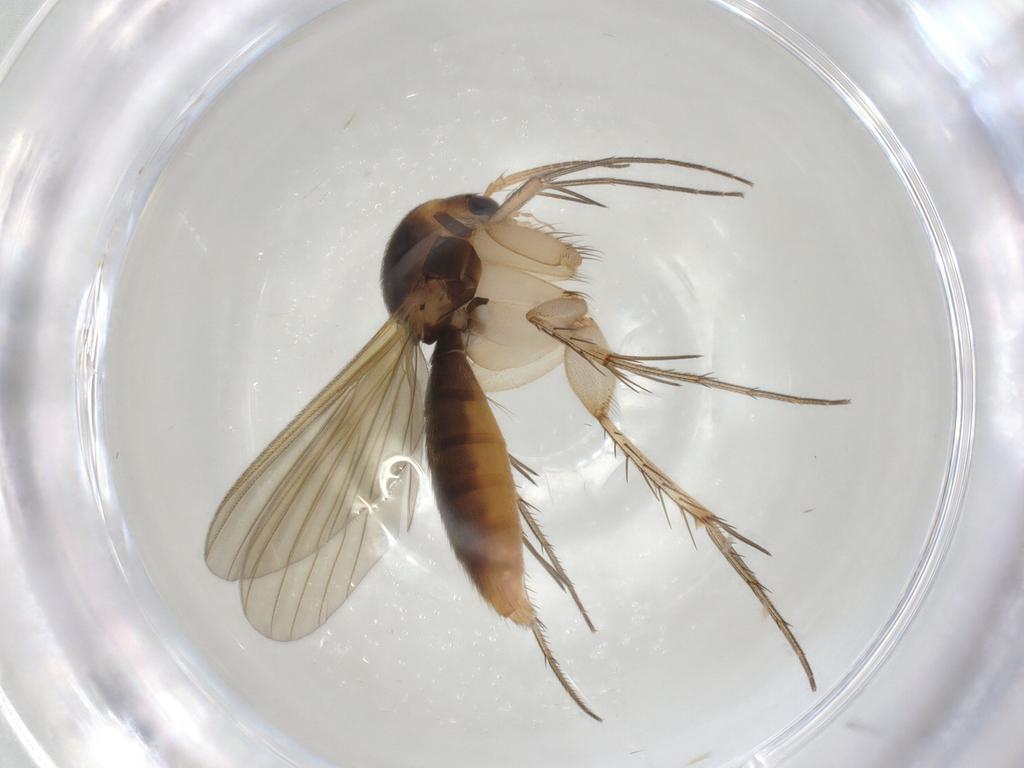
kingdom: Animalia
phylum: Arthropoda
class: Insecta
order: Diptera
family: Mycetophilidae
